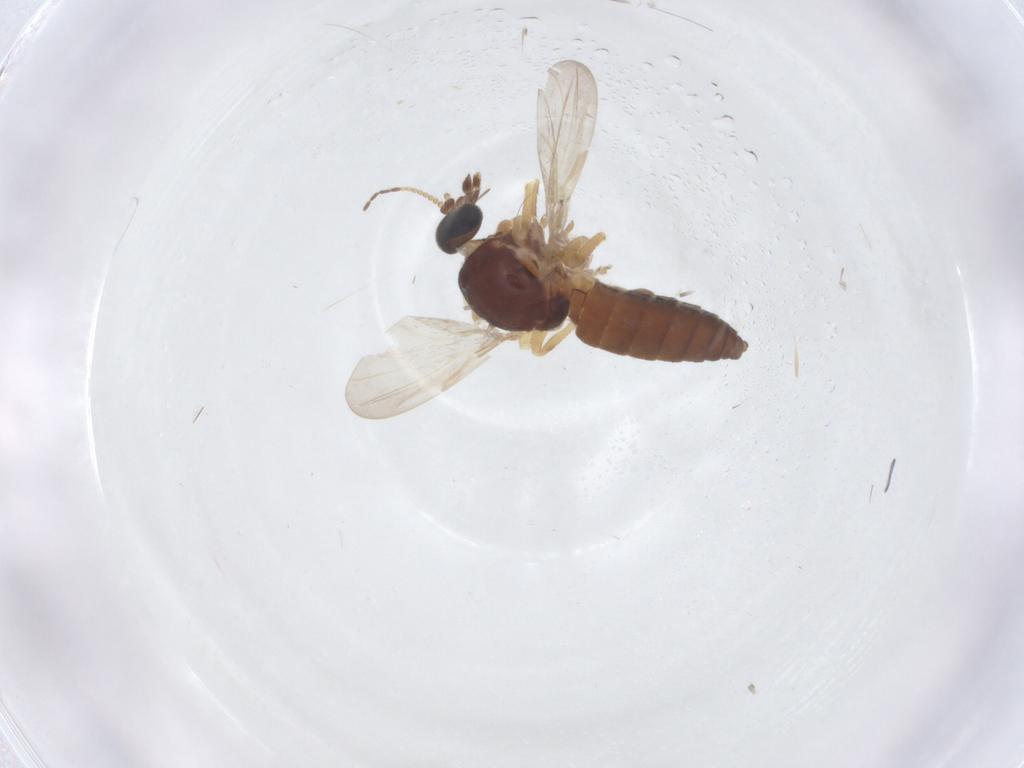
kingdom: Animalia
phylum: Arthropoda
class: Insecta
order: Diptera
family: Ceratopogonidae
